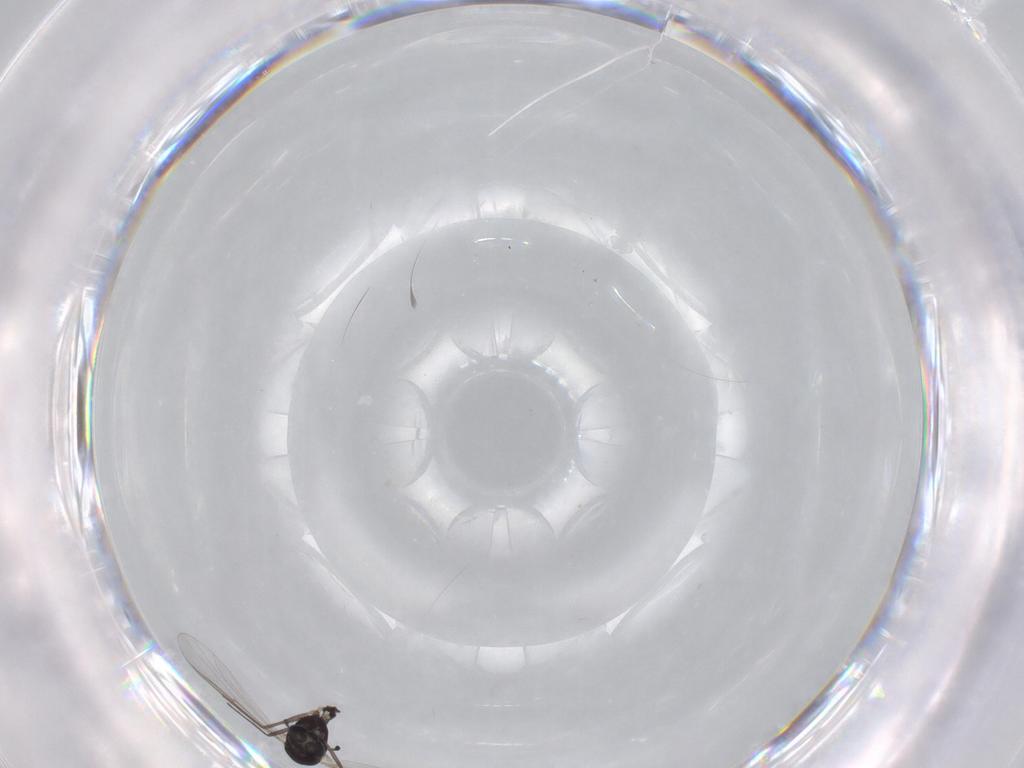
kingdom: Animalia
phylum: Arthropoda
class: Insecta
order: Diptera
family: Chironomidae
